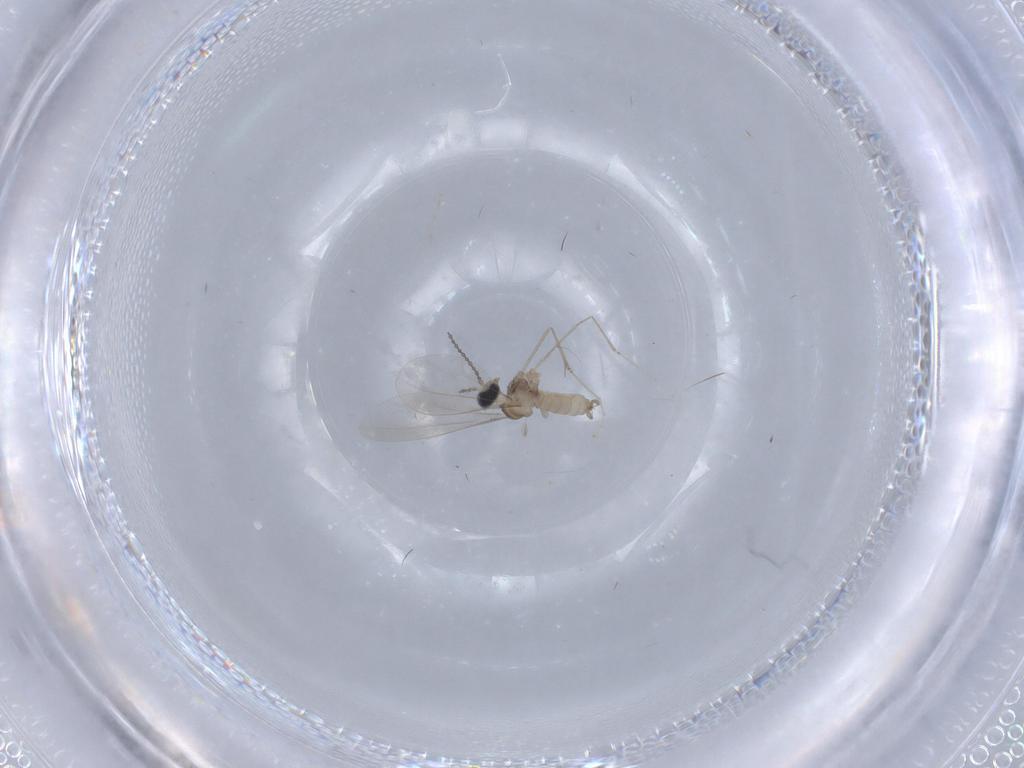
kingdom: Animalia
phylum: Arthropoda
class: Insecta
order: Diptera
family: Cecidomyiidae
